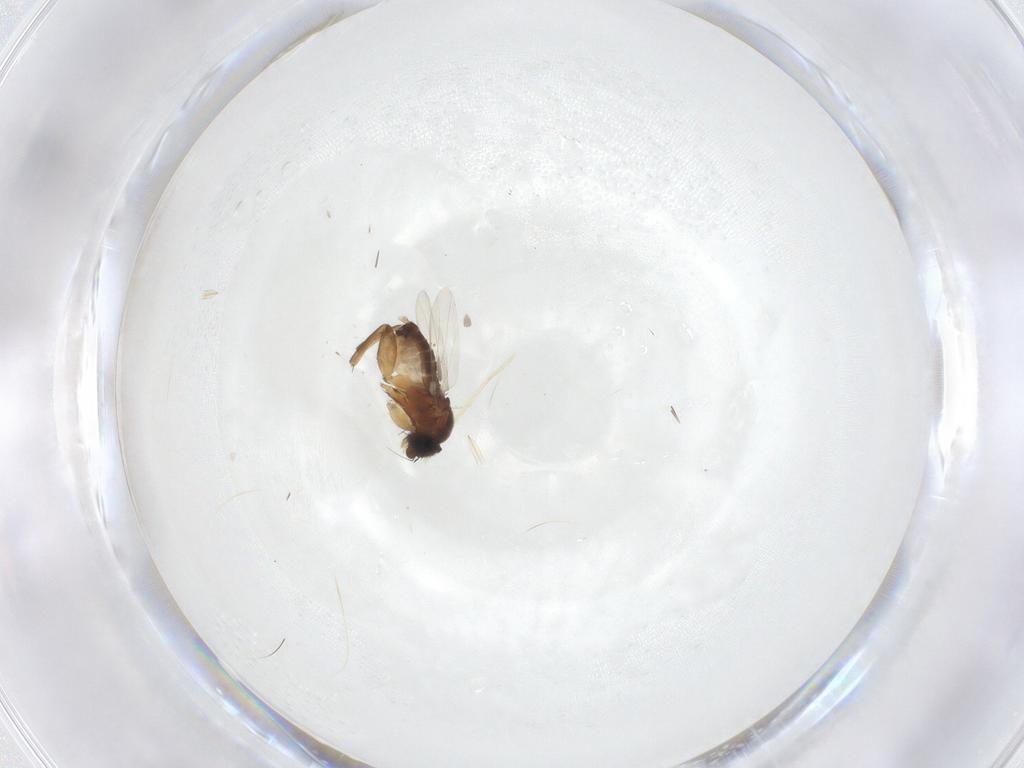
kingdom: Animalia
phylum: Arthropoda
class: Insecta
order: Diptera
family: Phoridae
